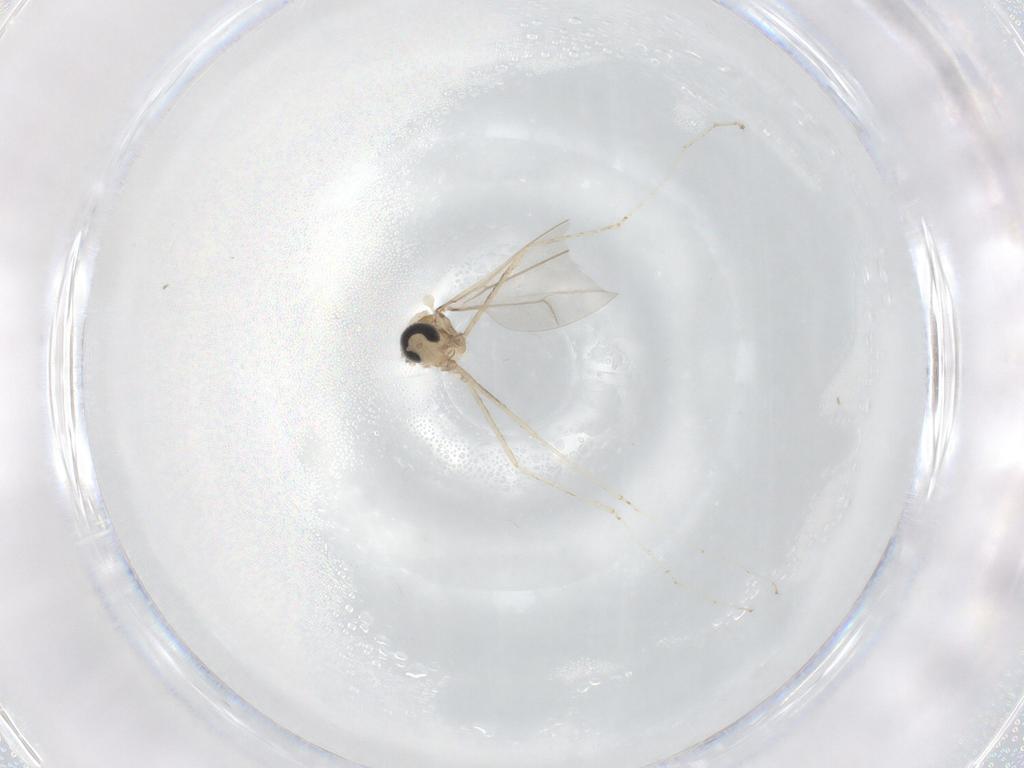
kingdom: Animalia
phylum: Arthropoda
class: Insecta
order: Diptera
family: Cecidomyiidae
